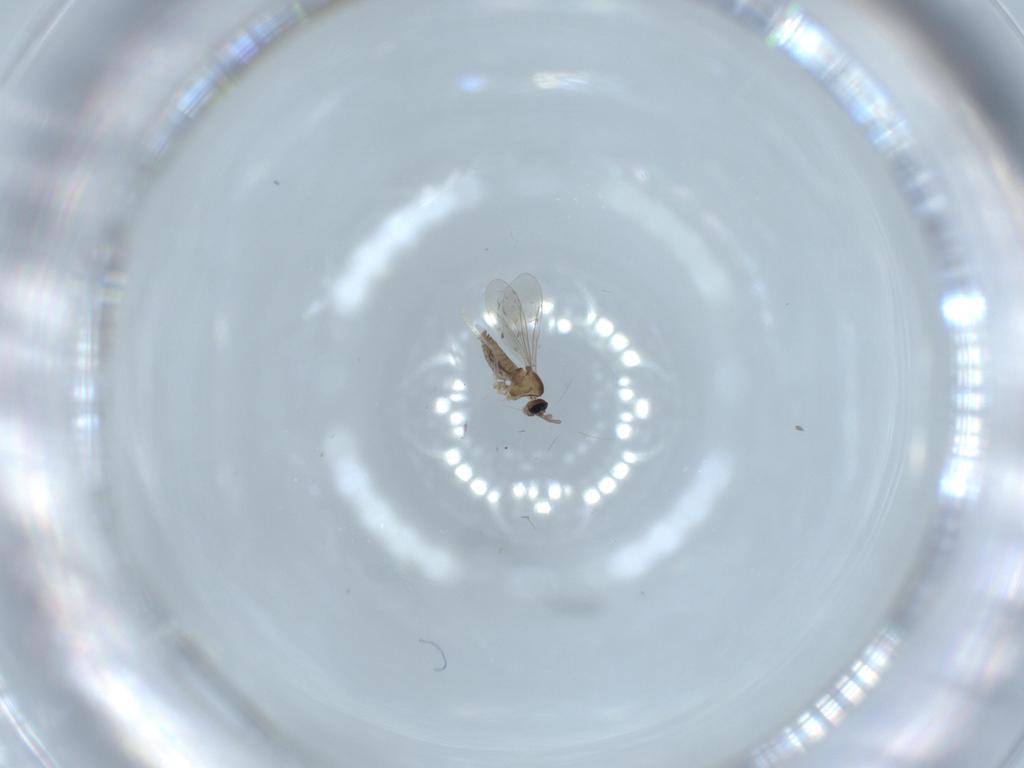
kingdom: Animalia
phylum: Arthropoda
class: Insecta
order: Diptera
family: Cecidomyiidae
